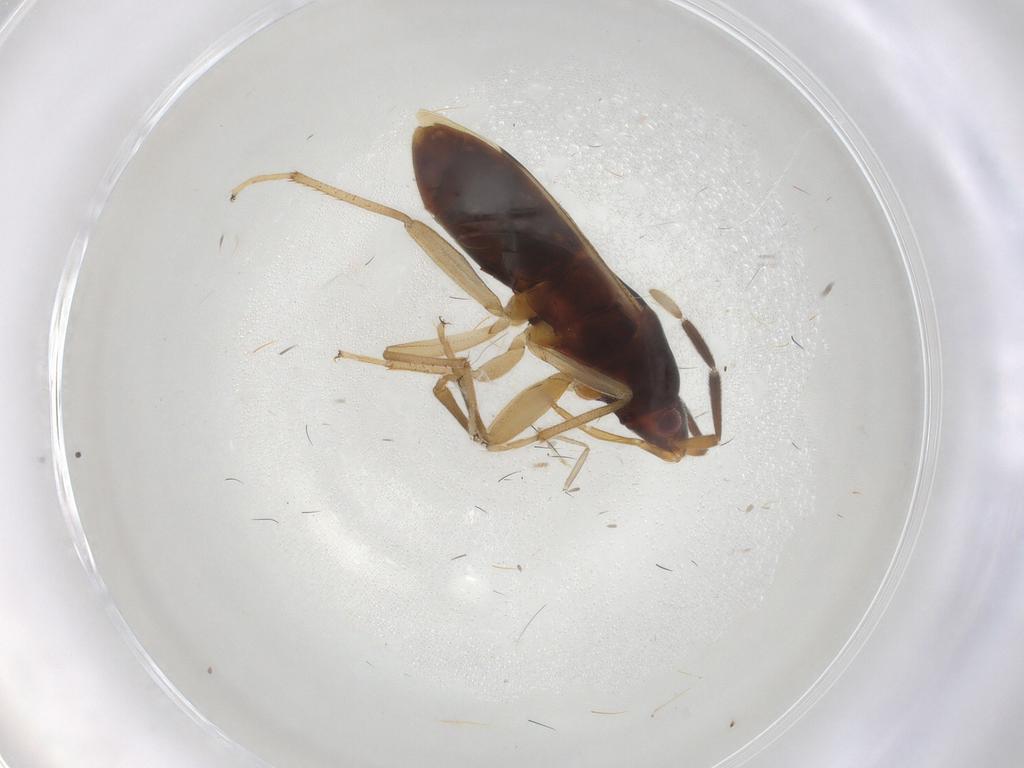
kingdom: Animalia
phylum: Arthropoda
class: Insecta
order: Hemiptera
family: Rhyparochromidae
